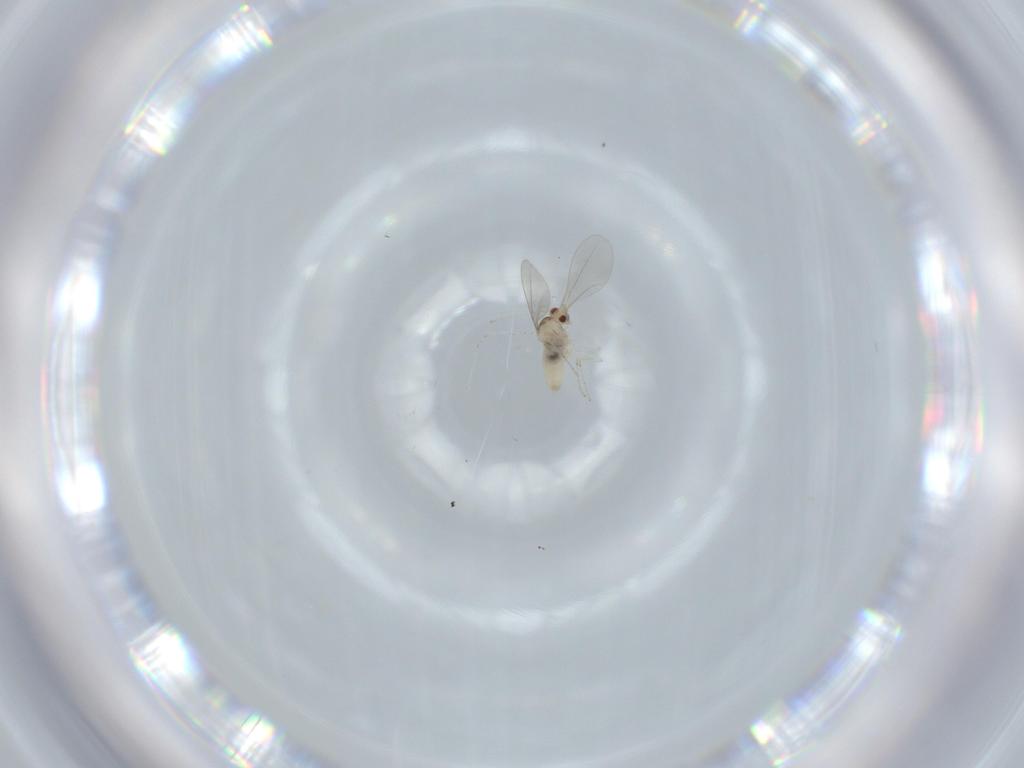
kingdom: Animalia
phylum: Arthropoda
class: Insecta
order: Diptera
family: Cecidomyiidae
